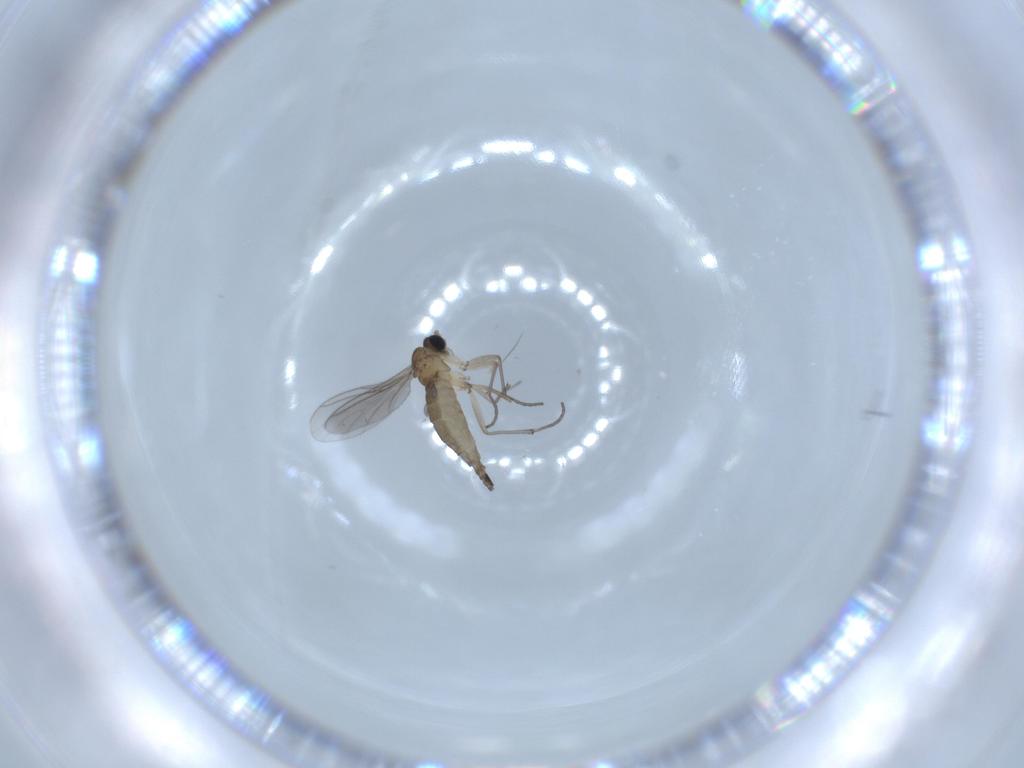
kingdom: Animalia
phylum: Arthropoda
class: Insecta
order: Diptera
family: Sciaridae
